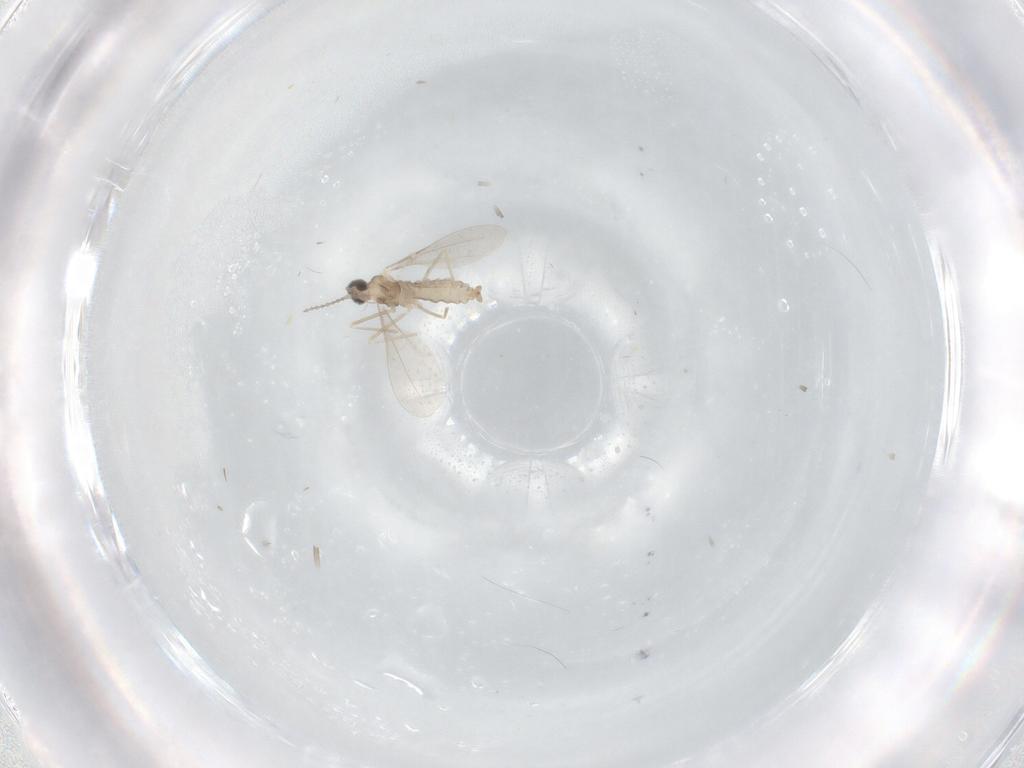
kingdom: Animalia
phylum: Arthropoda
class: Insecta
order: Diptera
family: Cecidomyiidae
